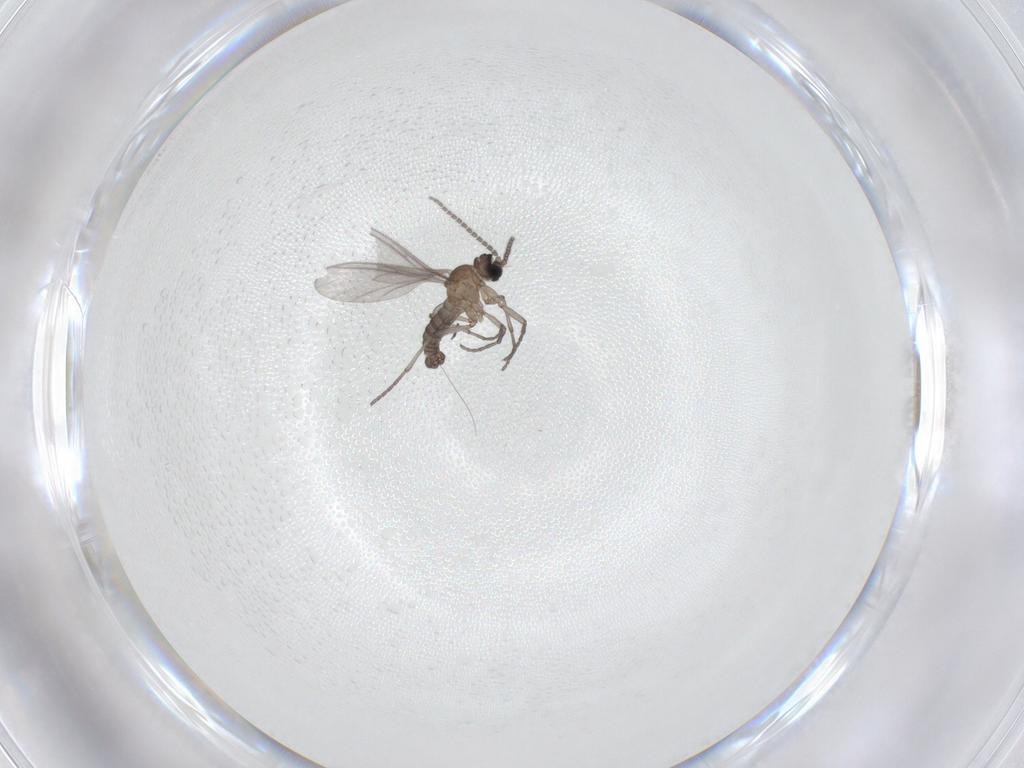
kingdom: Animalia
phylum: Arthropoda
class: Insecta
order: Diptera
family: Sciaridae
